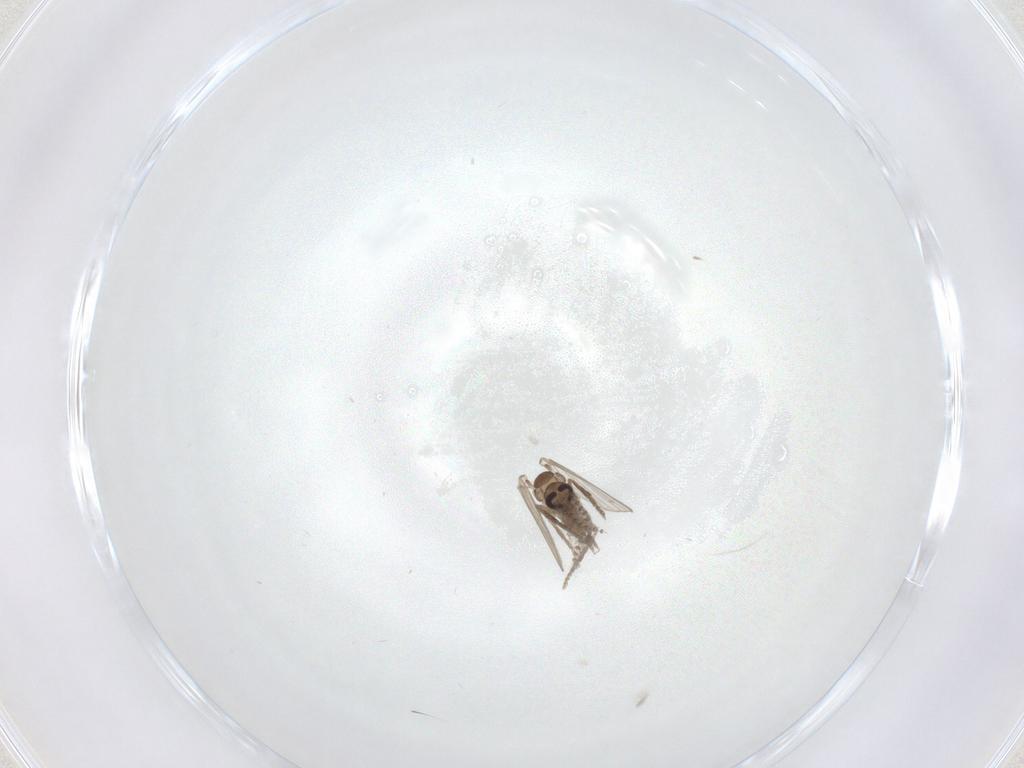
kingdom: Animalia
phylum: Arthropoda
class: Insecta
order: Diptera
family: Psychodidae
